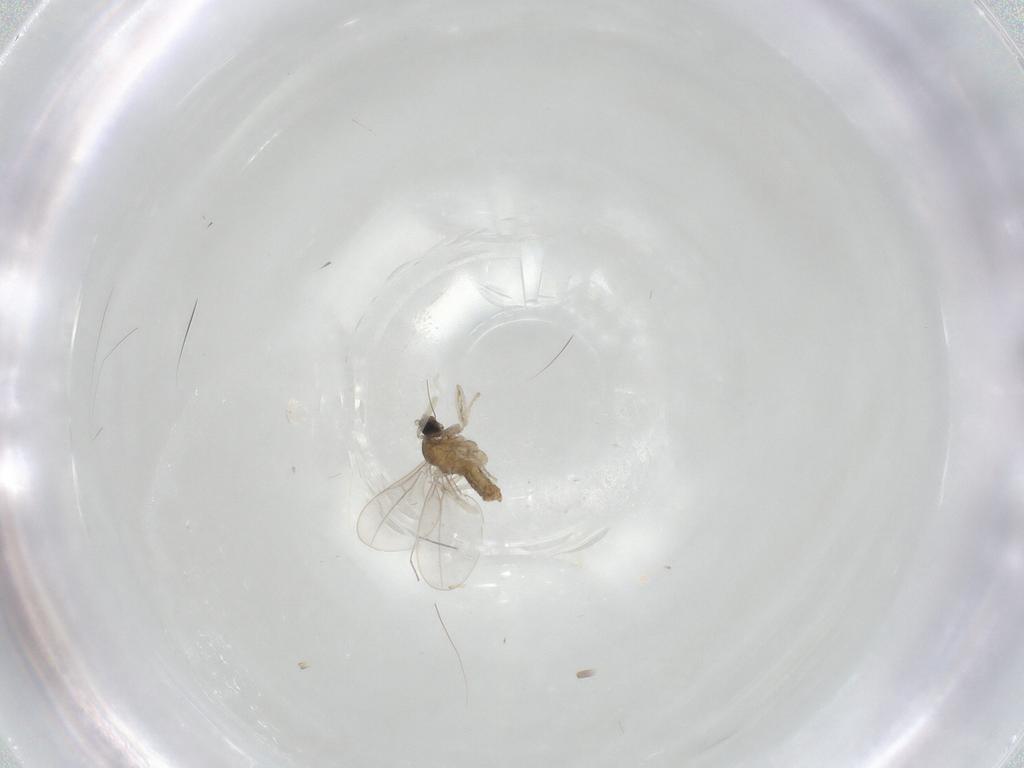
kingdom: Animalia
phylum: Arthropoda
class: Insecta
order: Diptera
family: Cecidomyiidae
